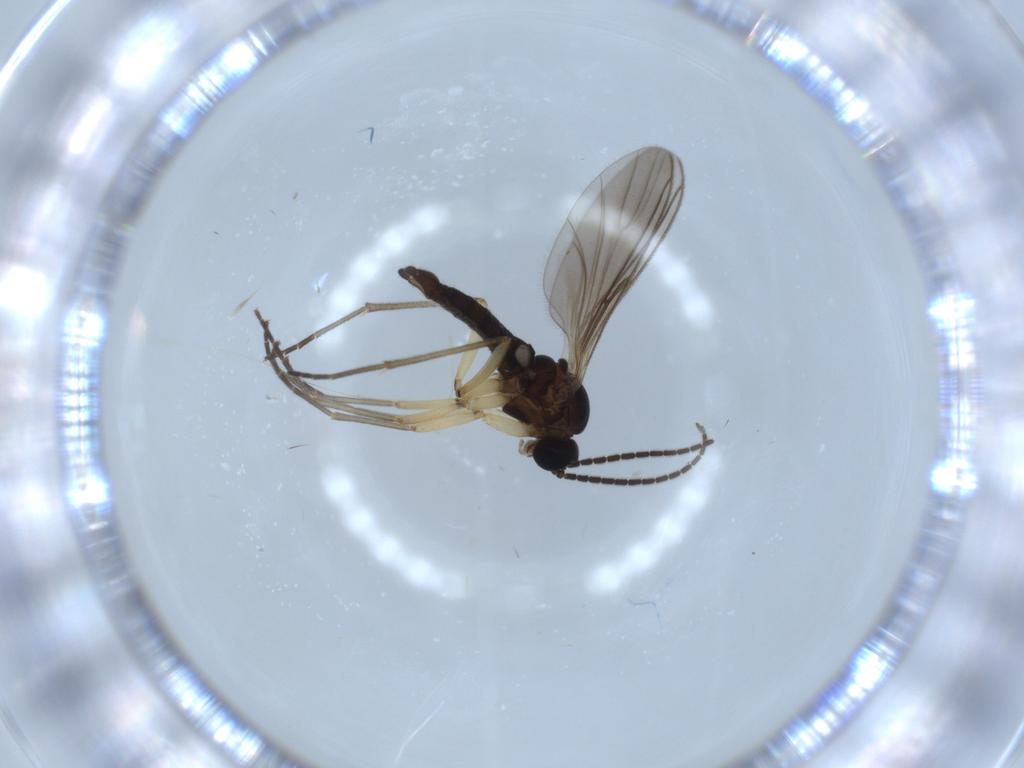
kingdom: Animalia
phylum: Arthropoda
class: Insecta
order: Diptera
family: Sciaridae
